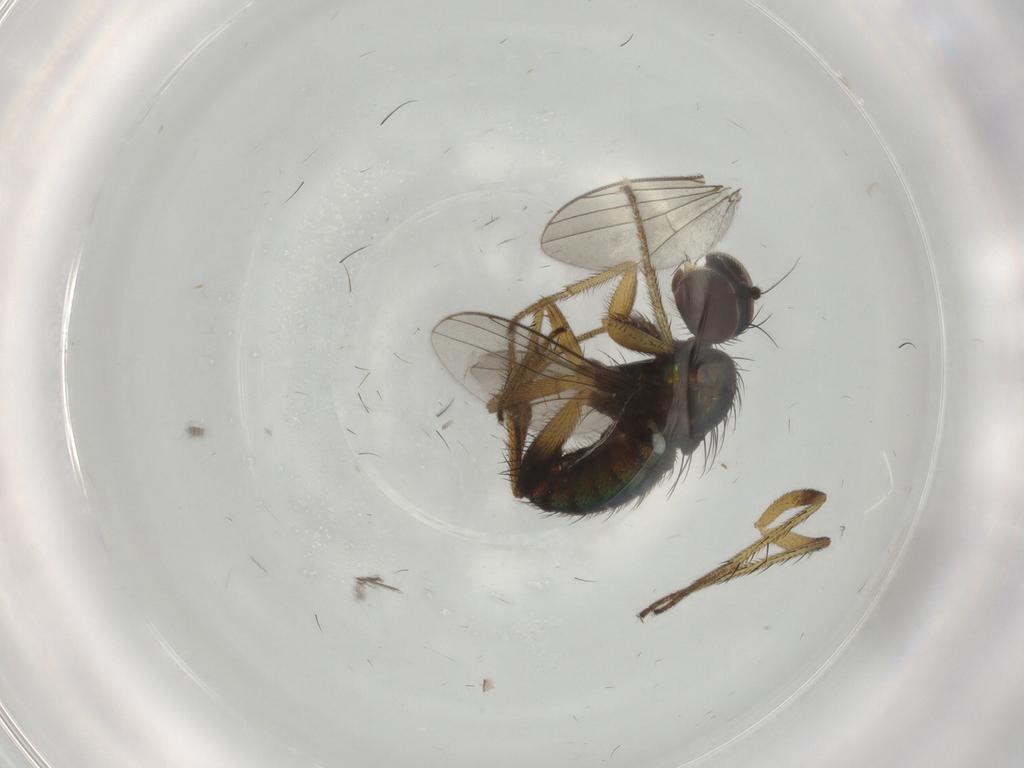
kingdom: Animalia
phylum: Arthropoda
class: Insecta
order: Diptera
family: Dolichopodidae
